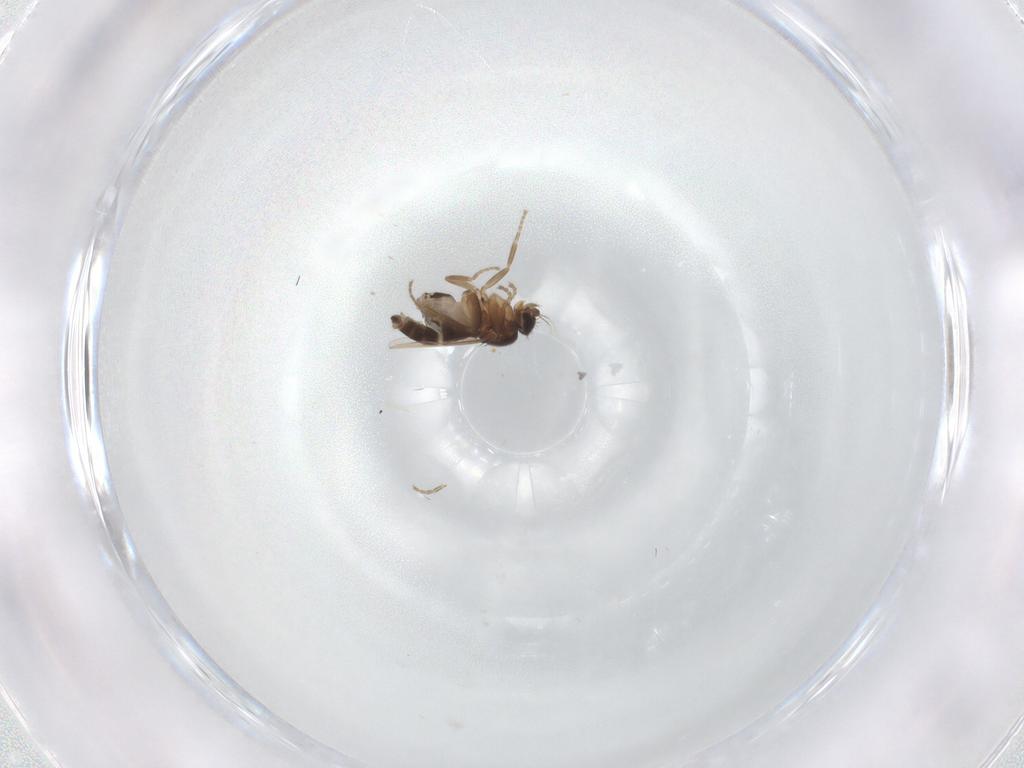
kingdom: Animalia
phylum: Arthropoda
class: Insecta
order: Diptera
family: Phoridae
